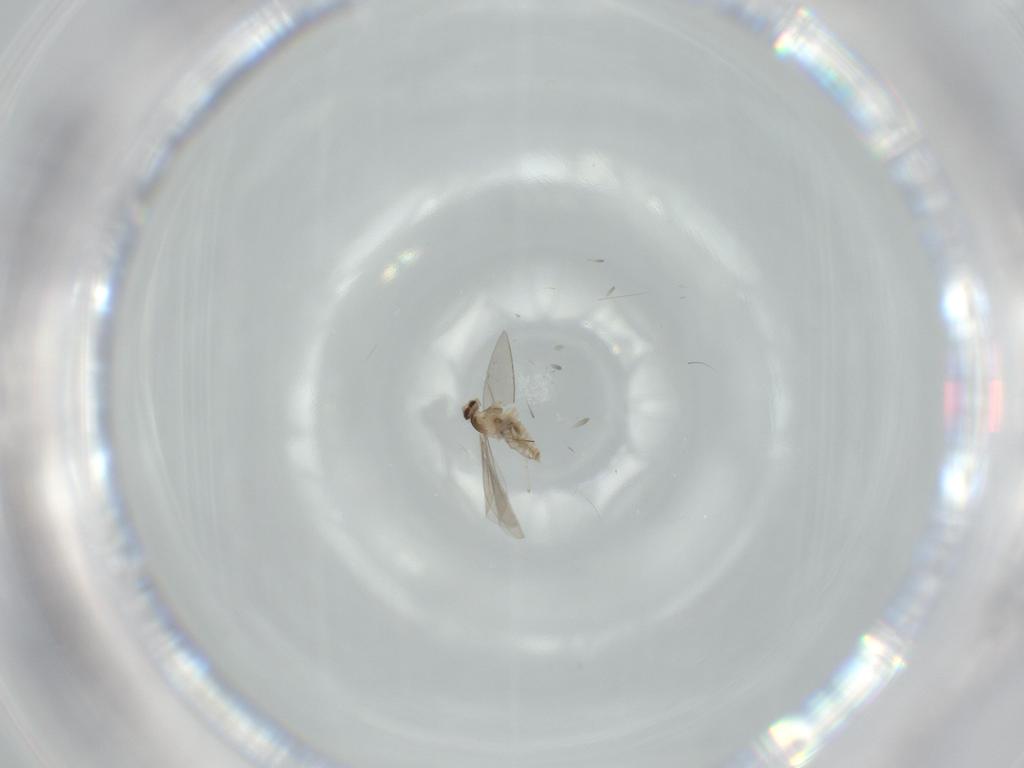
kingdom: Animalia
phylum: Arthropoda
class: Insecta
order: Diptera
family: Cecidomyiidae
